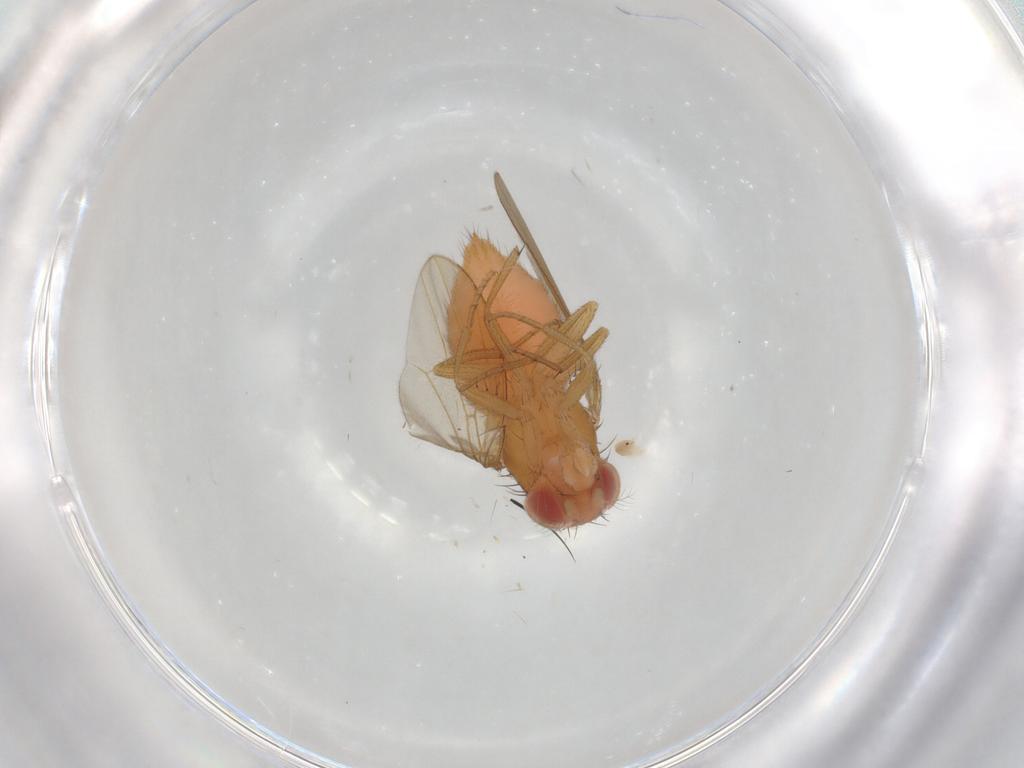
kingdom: Animalia
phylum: Arthropoda
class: Insecta
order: Diptera
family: Drosophilidae
